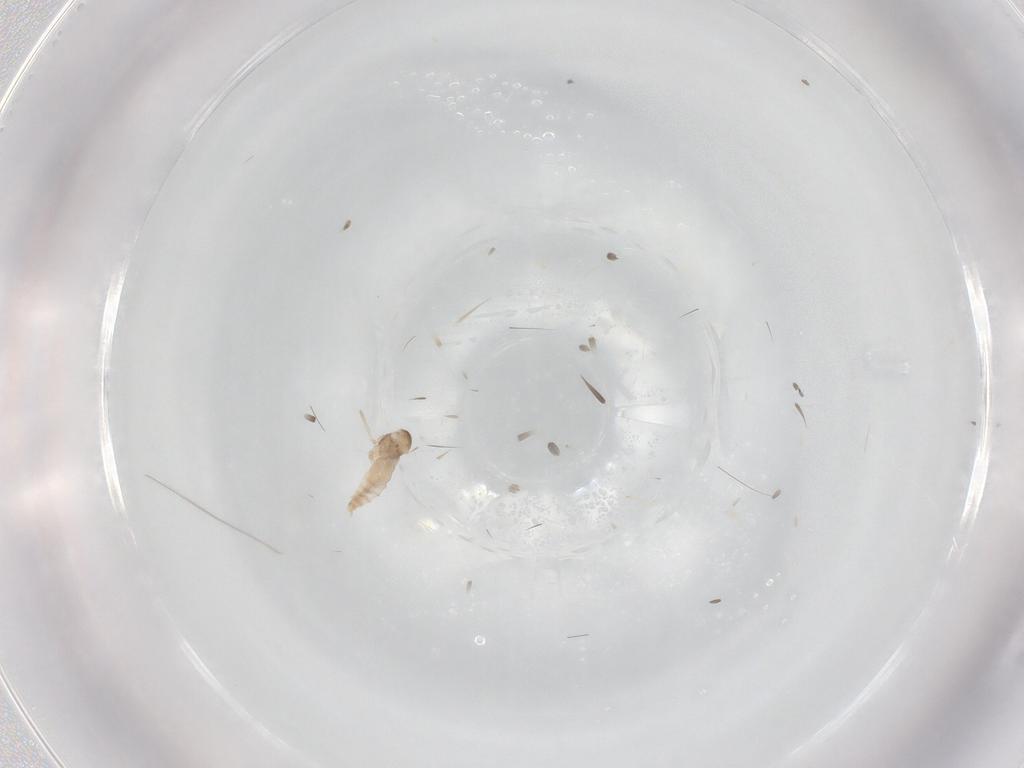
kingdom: Animalia
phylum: Arthropoda
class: Insecta
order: Diptera
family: Cecidomyiidae
